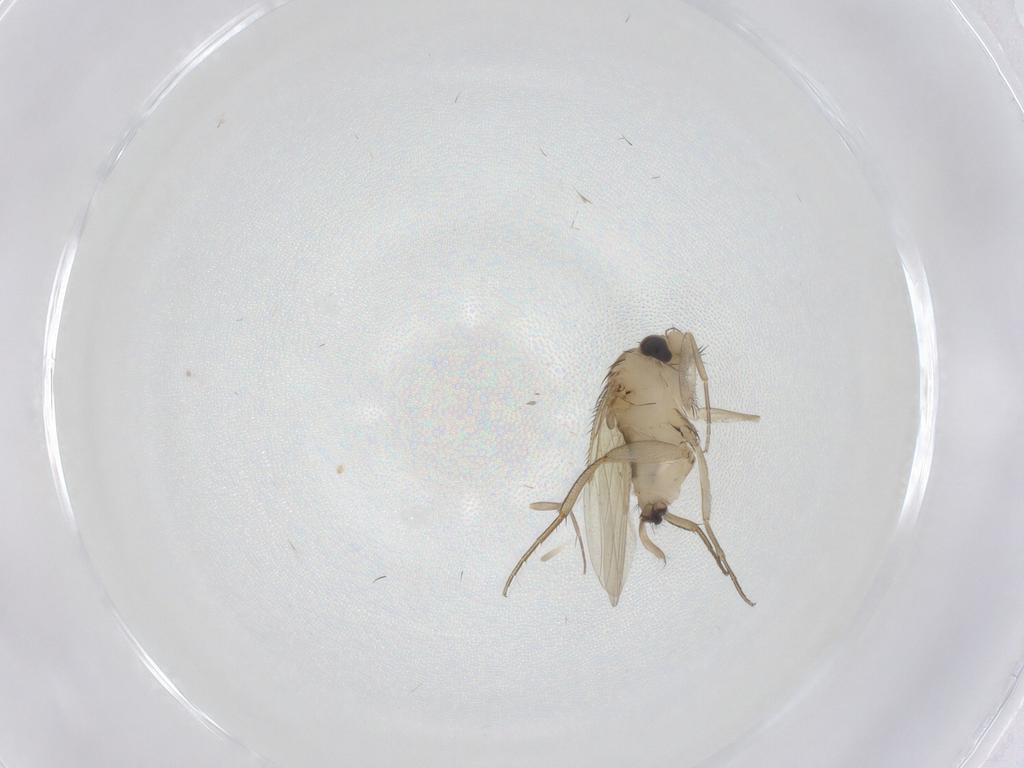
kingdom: Animalia
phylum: Arthropoda
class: Insecta
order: Diptera
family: Phoridae
